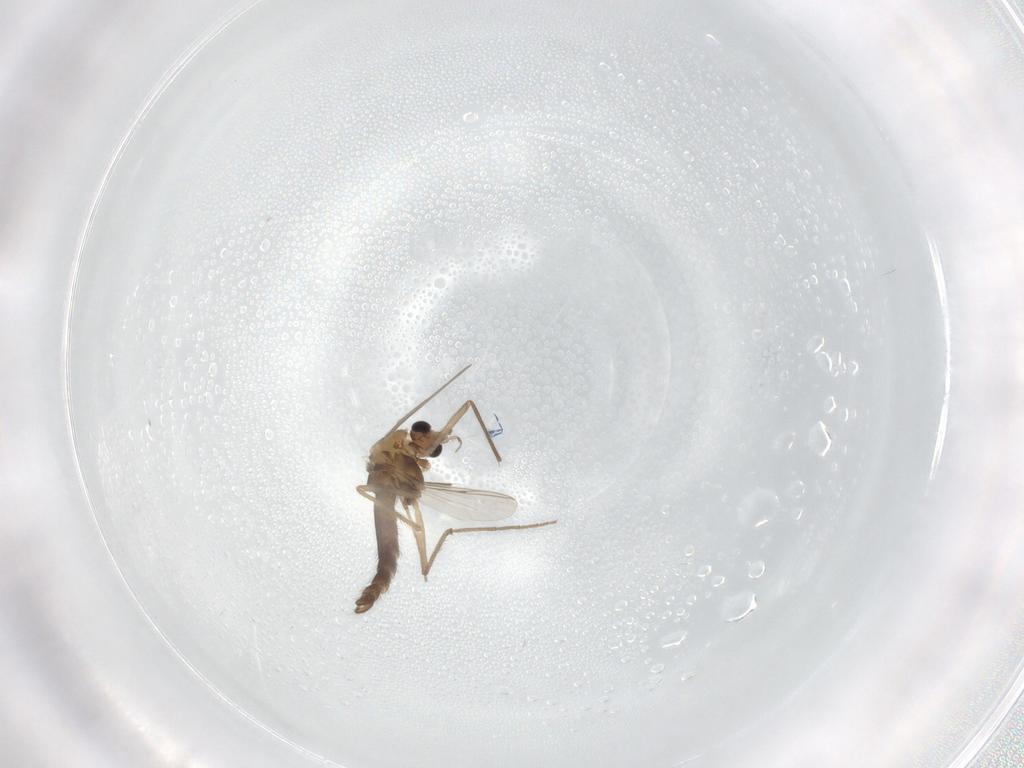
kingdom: Animalia
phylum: Arthropoda
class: Insecta
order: Diptera
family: Chironomidae
